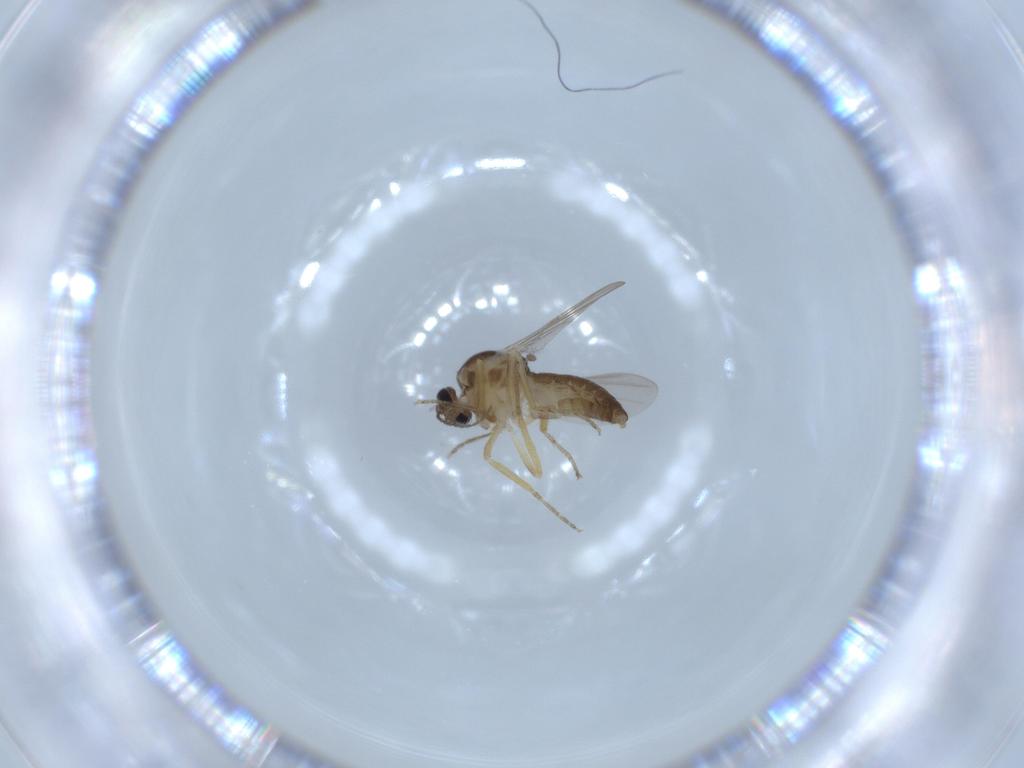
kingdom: Animalia
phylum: Arthropoda
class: Insecta
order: Diptera
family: Ceratopogonidae
